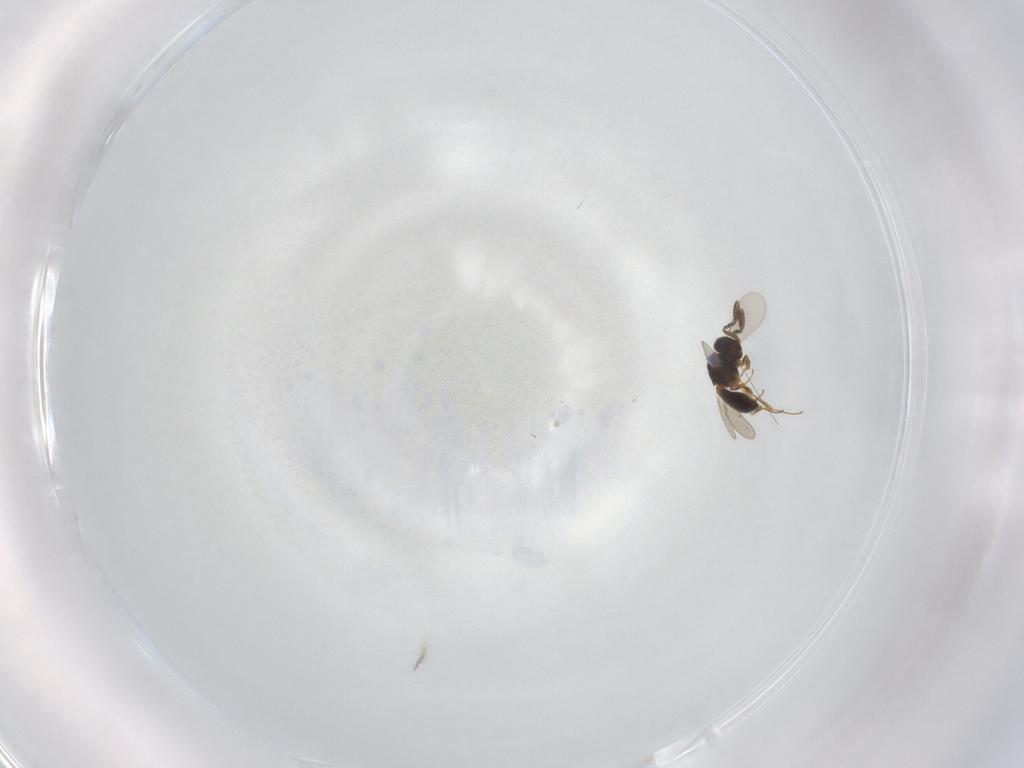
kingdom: Animalia
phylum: Arthropoda
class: Insecta
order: Hymenoptera
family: Scelionidae
